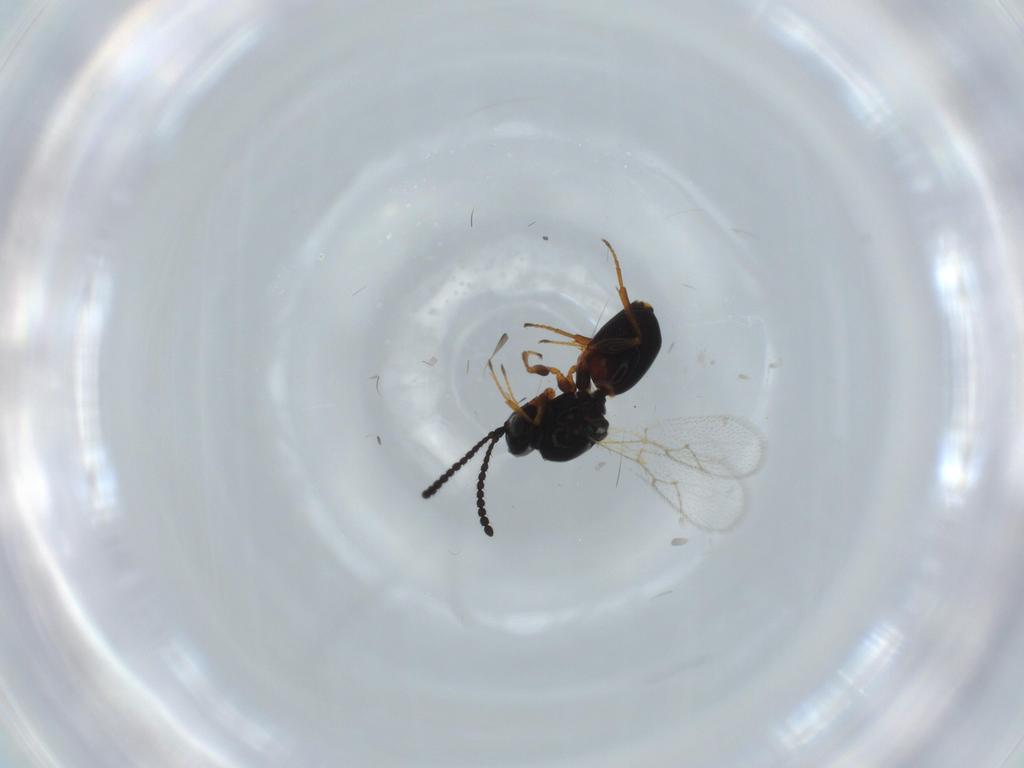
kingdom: Animalia
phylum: Arthropoda
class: Insecta
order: Hymenoptera
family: Figitidae
